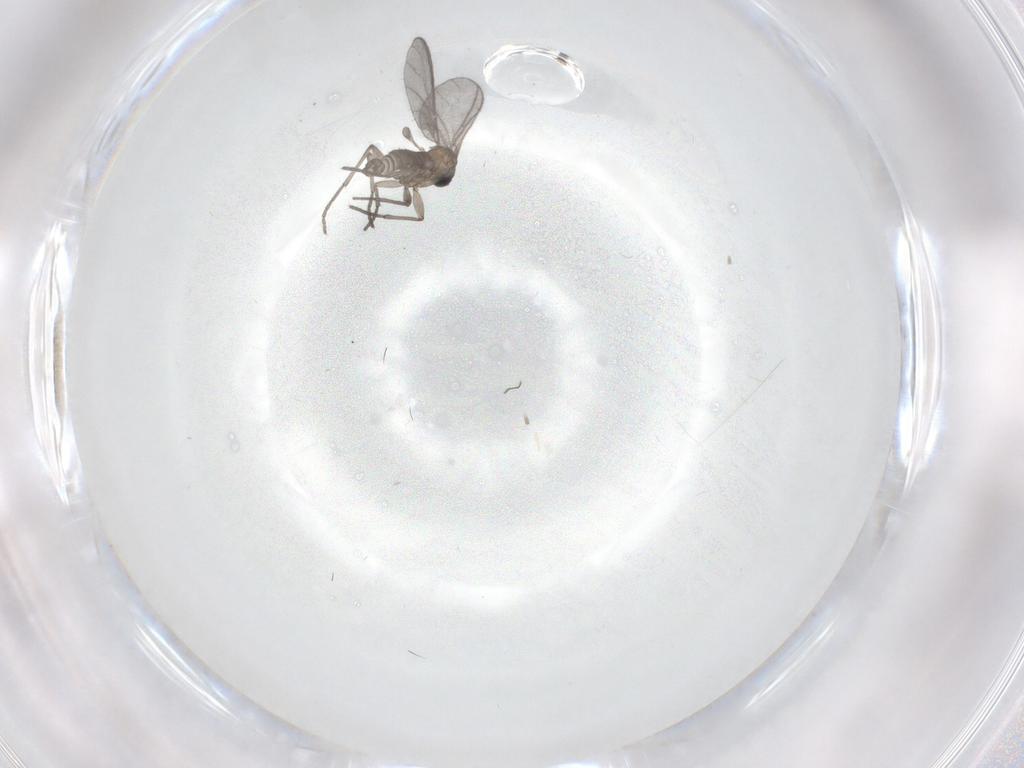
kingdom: Animalia
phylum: Arthropoda
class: Insecta
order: Diptera
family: Sciaridae
